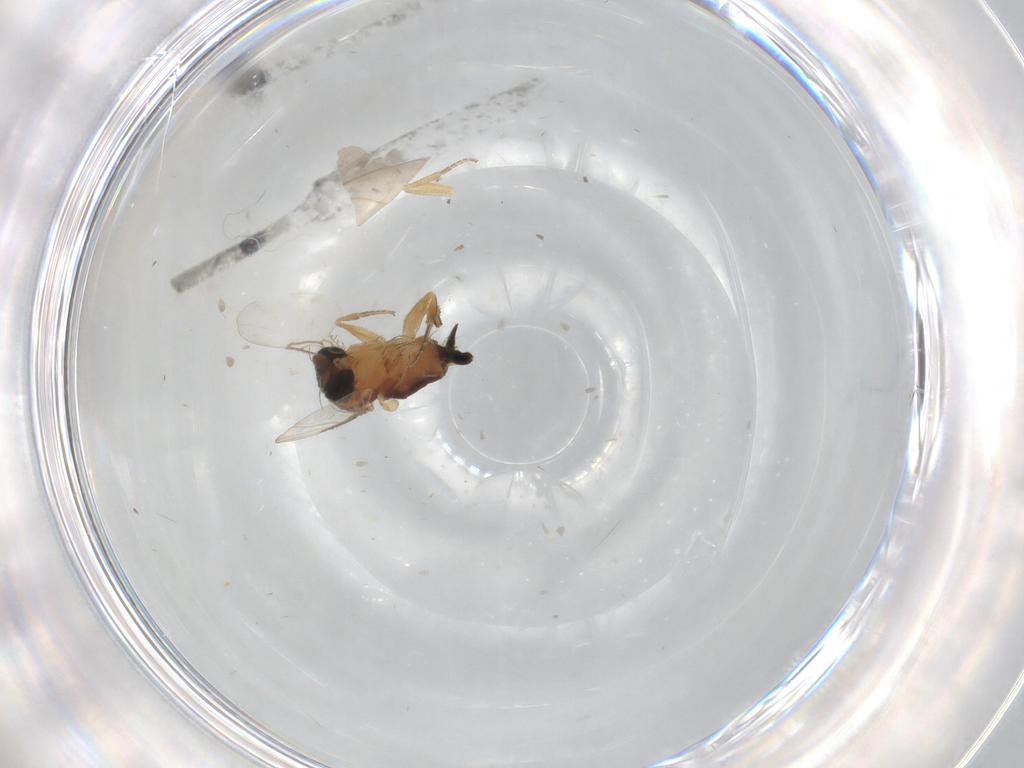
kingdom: Animalia
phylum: Arthropoda
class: Insecta
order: Diptera
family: Phoridae
